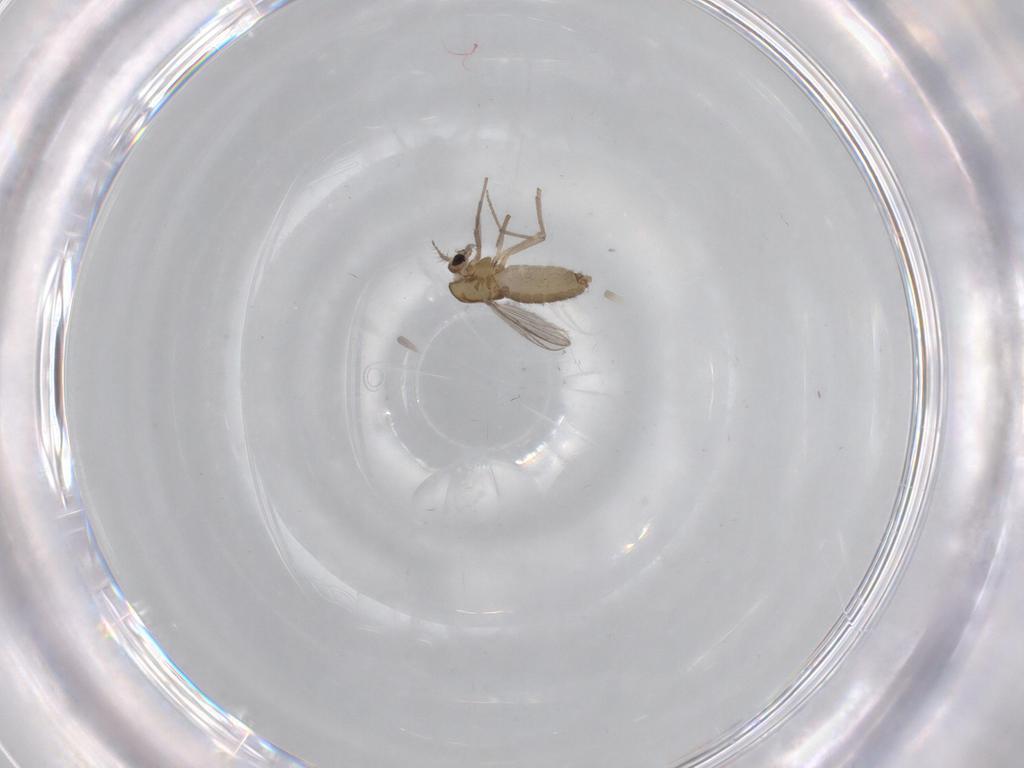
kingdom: Animalia
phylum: Arthropoda
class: Insecta
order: Diptera
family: Chironomidae
